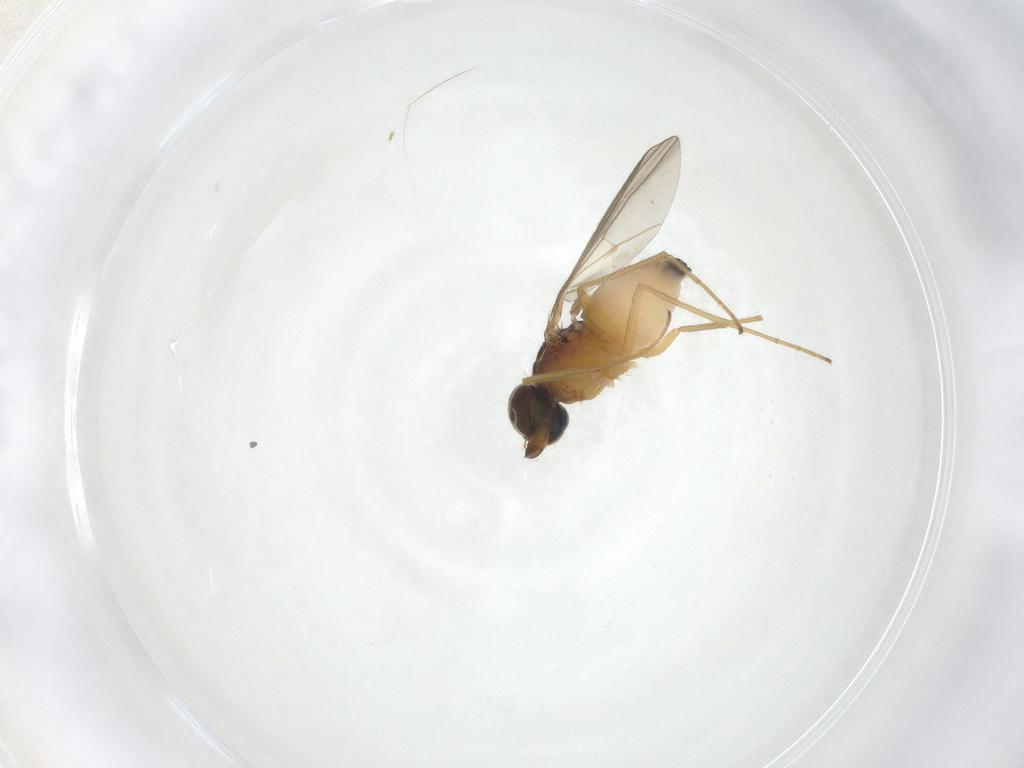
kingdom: Animalia
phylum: Arthropoda
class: Insecta
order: Diptera
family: Dolichopodidae
